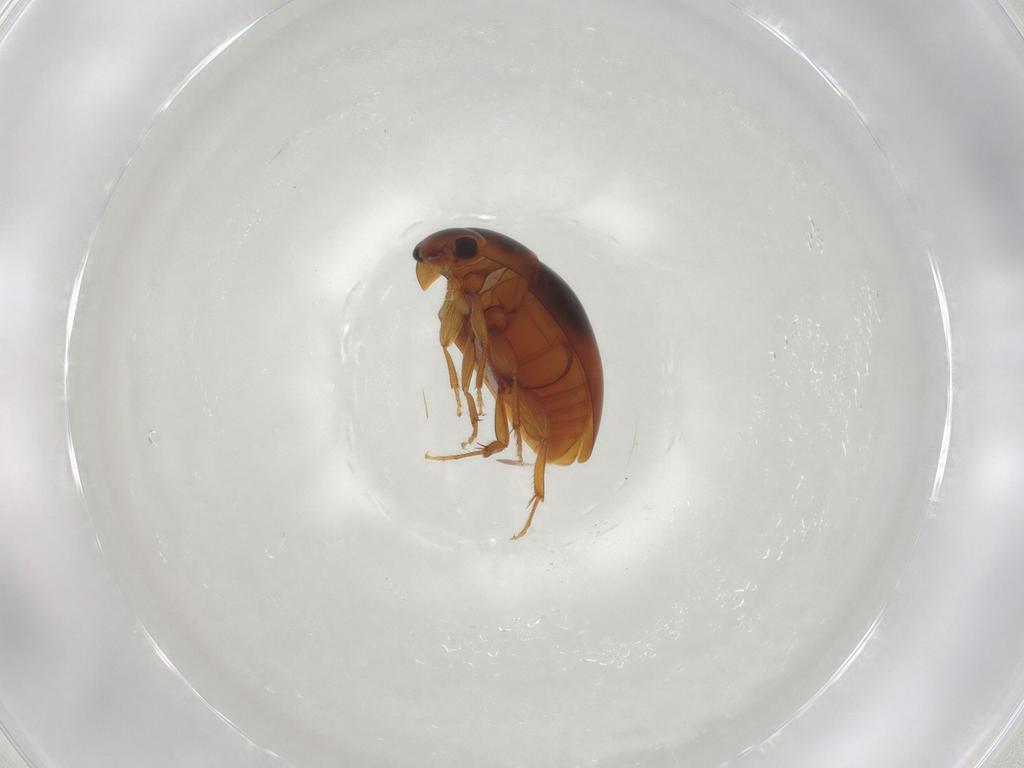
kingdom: Animalia
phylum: Arthropoda
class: Insecta
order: Coleoptera
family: Phalacridae
